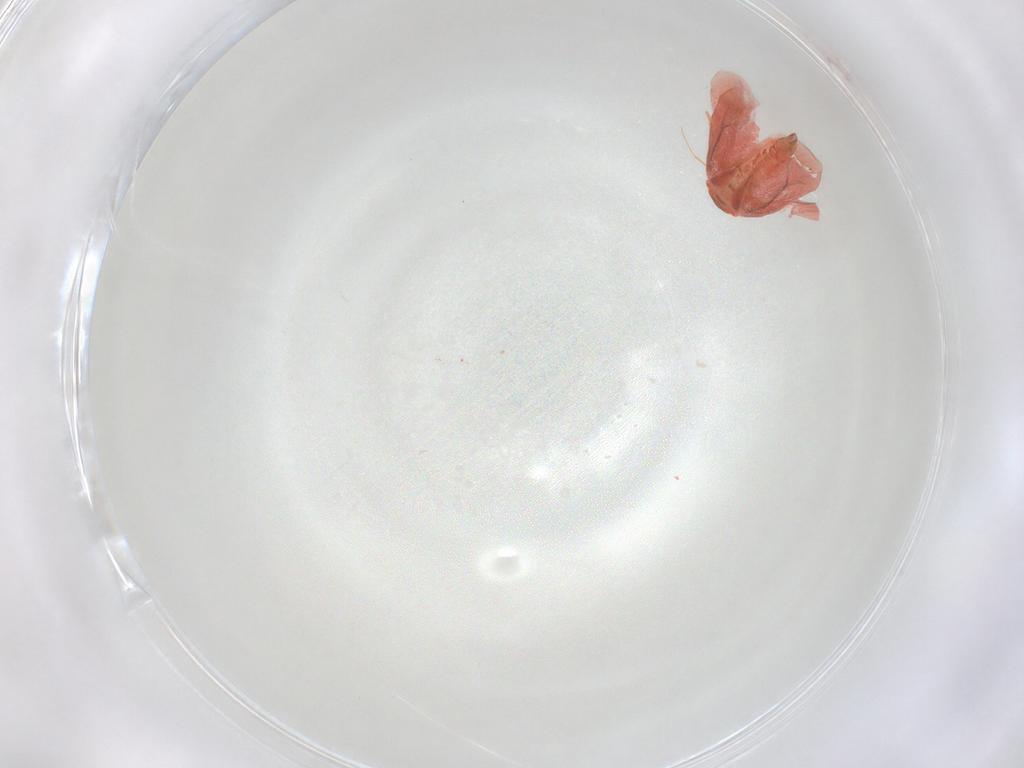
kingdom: Animalia
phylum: Arthropoda
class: Insecta
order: Hemiptera
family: Aleyrodidae
